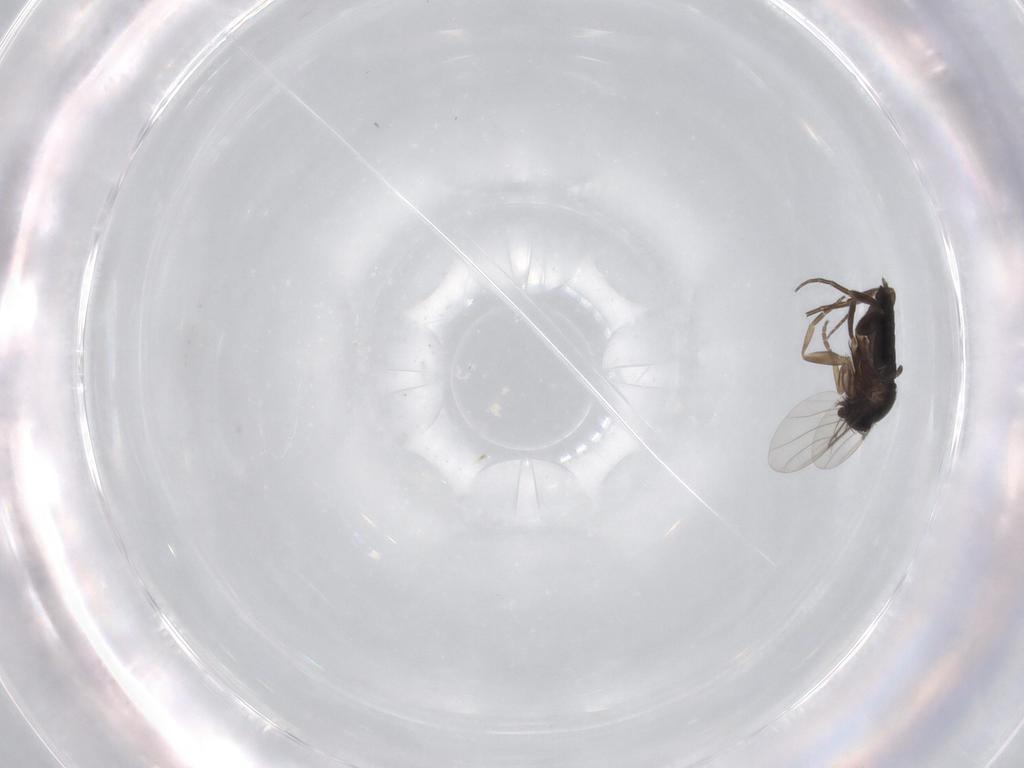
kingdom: Animalia
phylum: Arthropoda
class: Insecta
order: Diptera
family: Phoridae
